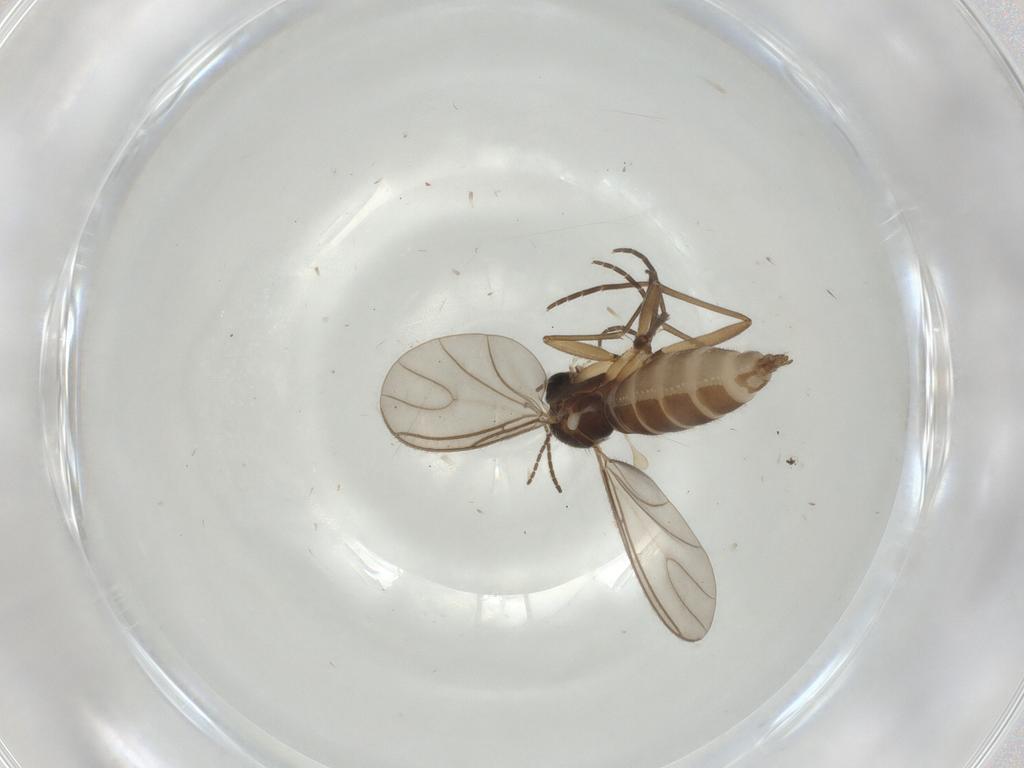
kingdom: Animalia
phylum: Arthropoda
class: Insecta
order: Diptera
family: Sciaridae
